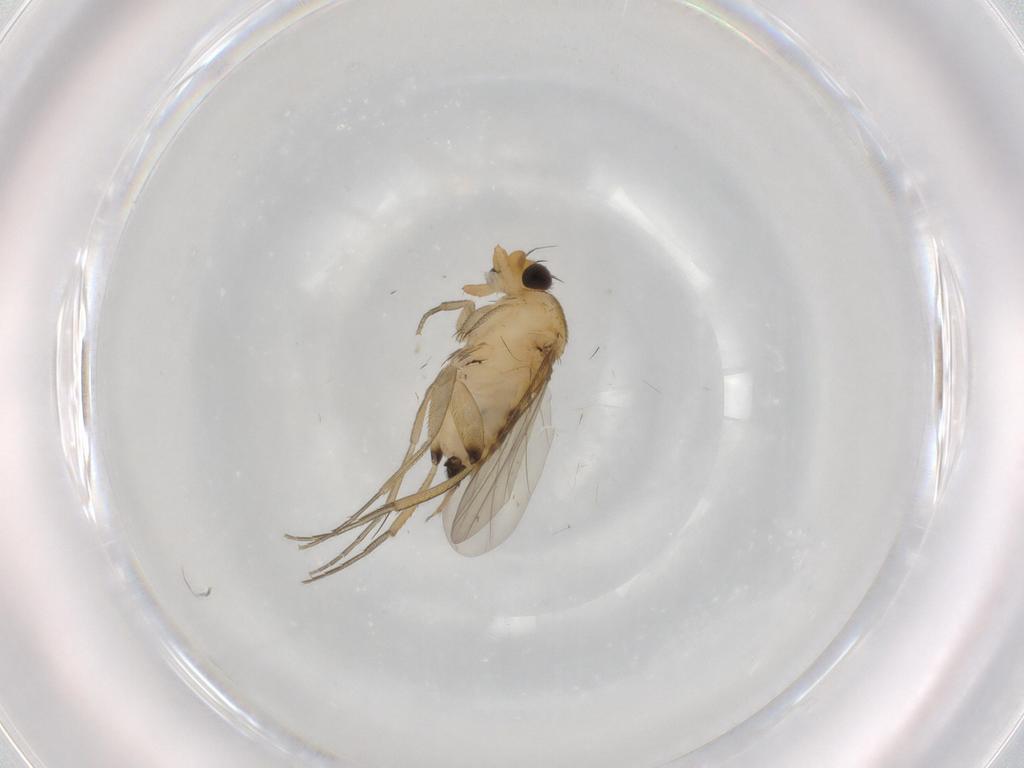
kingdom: Animalia
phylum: Arthropoda
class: Insecta
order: Diptera
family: Phoridae
